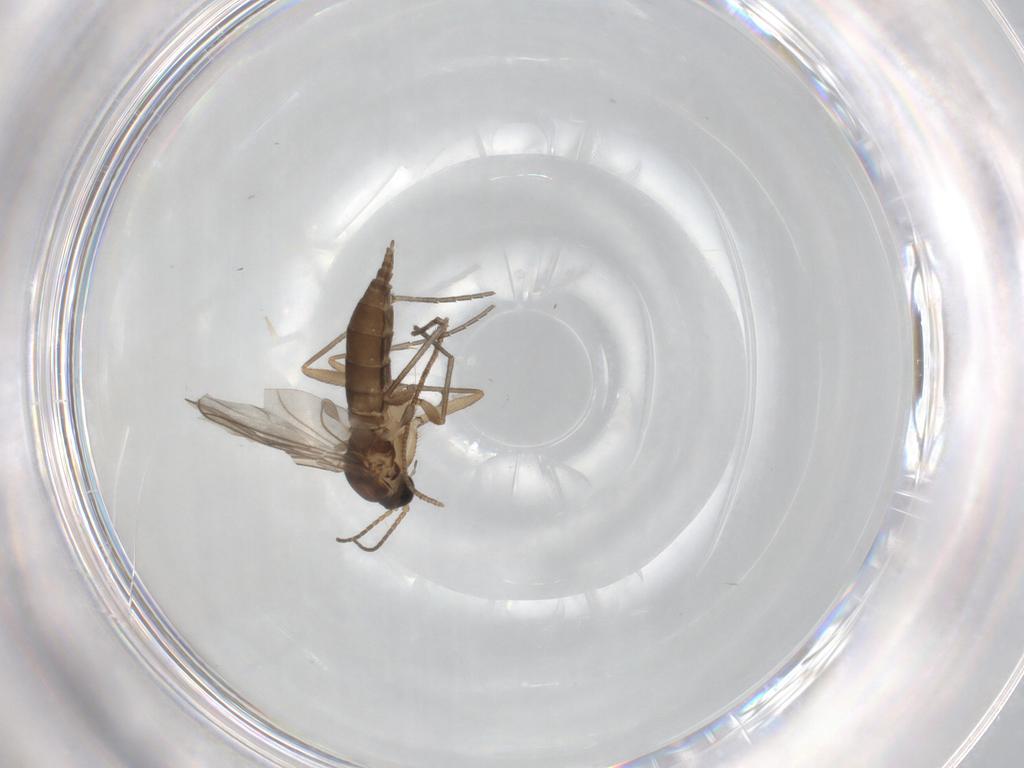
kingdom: Animalia
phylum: Arthropoda
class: Insecta
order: Diptera
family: Sciaridae
